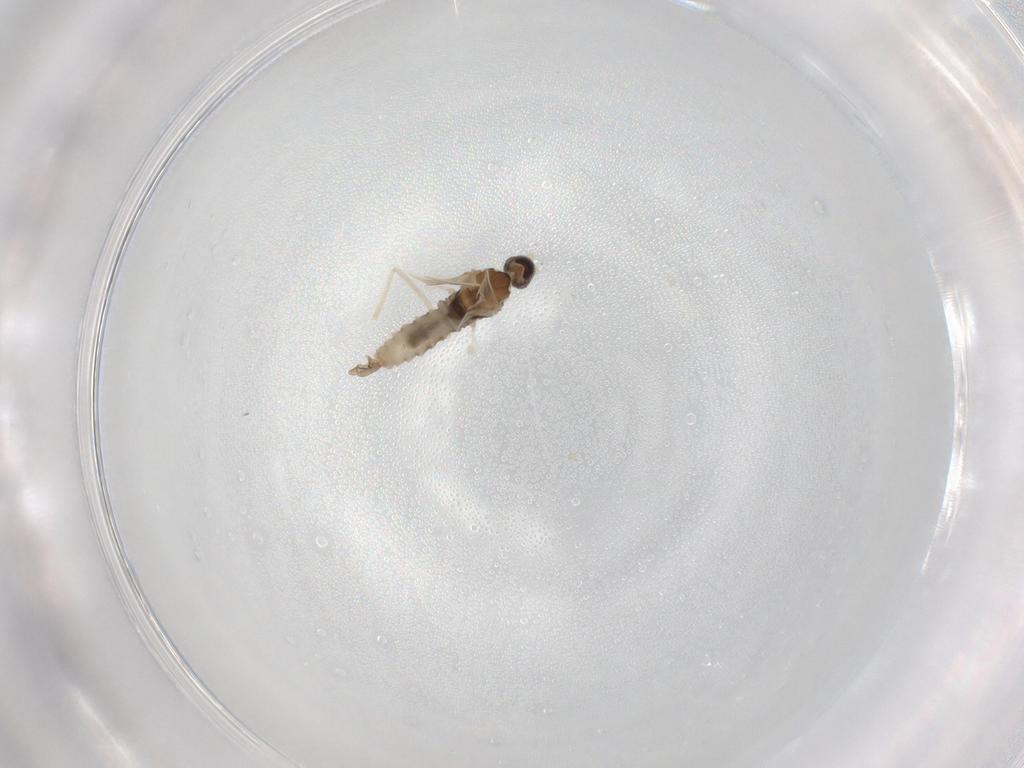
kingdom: Animalia
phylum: Arthropoda
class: Insecta
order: Diptera
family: Cecidomyiidae
